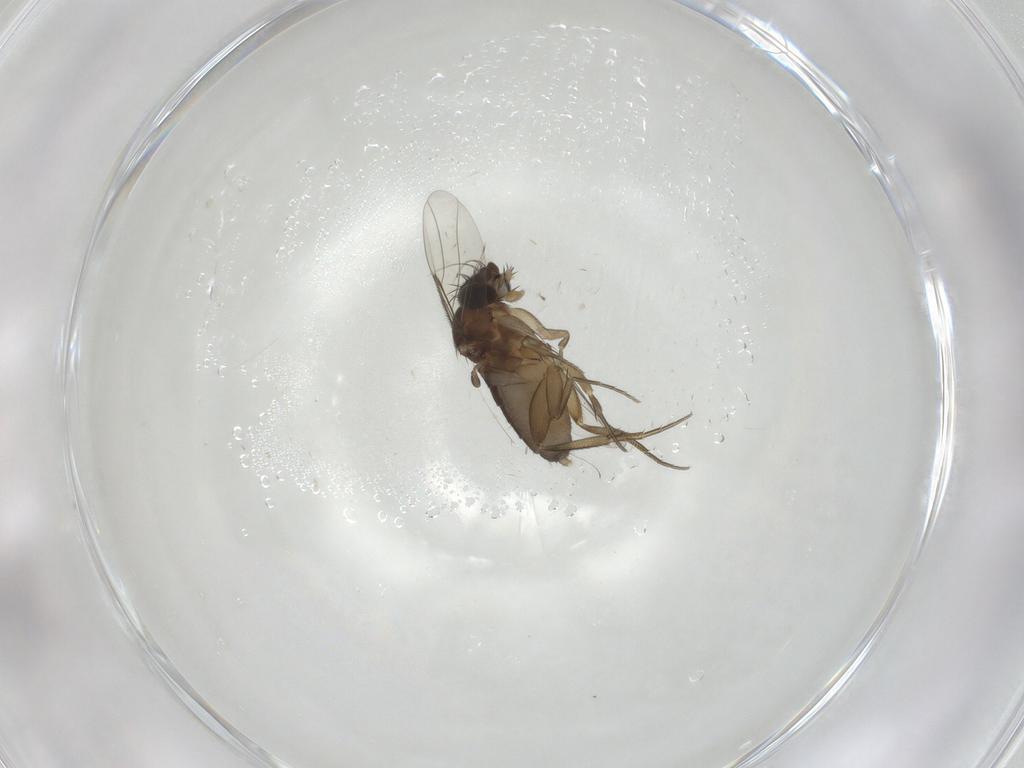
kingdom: Animalia
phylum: Arthropoda
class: Insecta
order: Diptera
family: Phoridae
